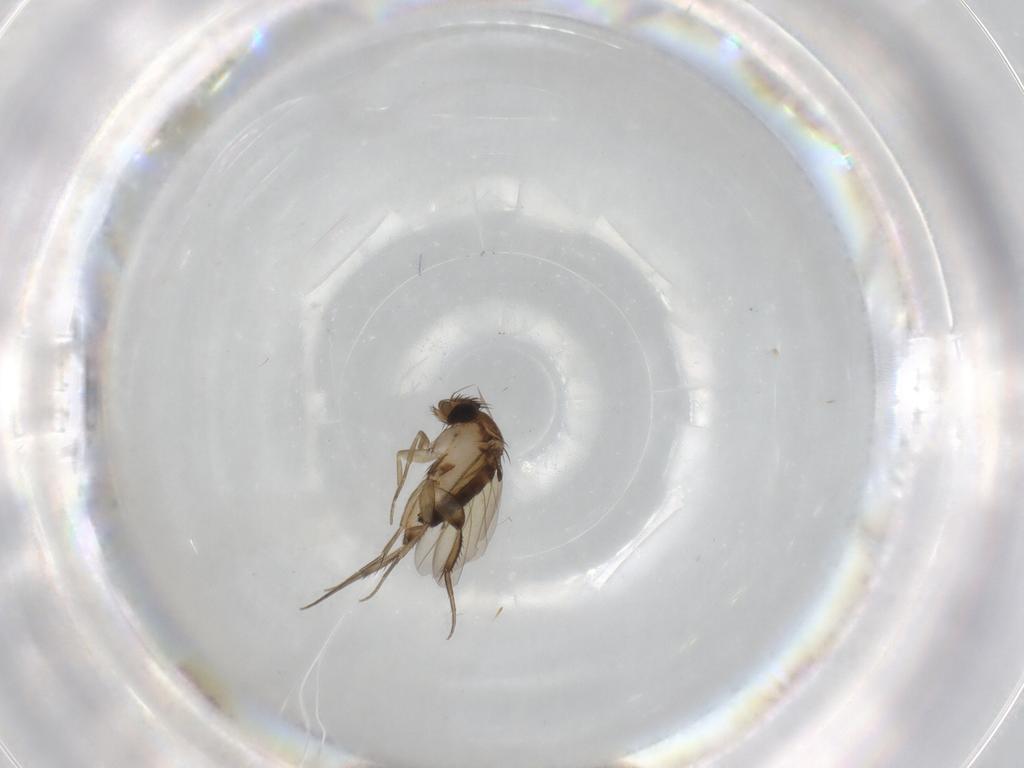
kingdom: Animalia
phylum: Arthropoda
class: Insecta
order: Diptera
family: Phoridae
